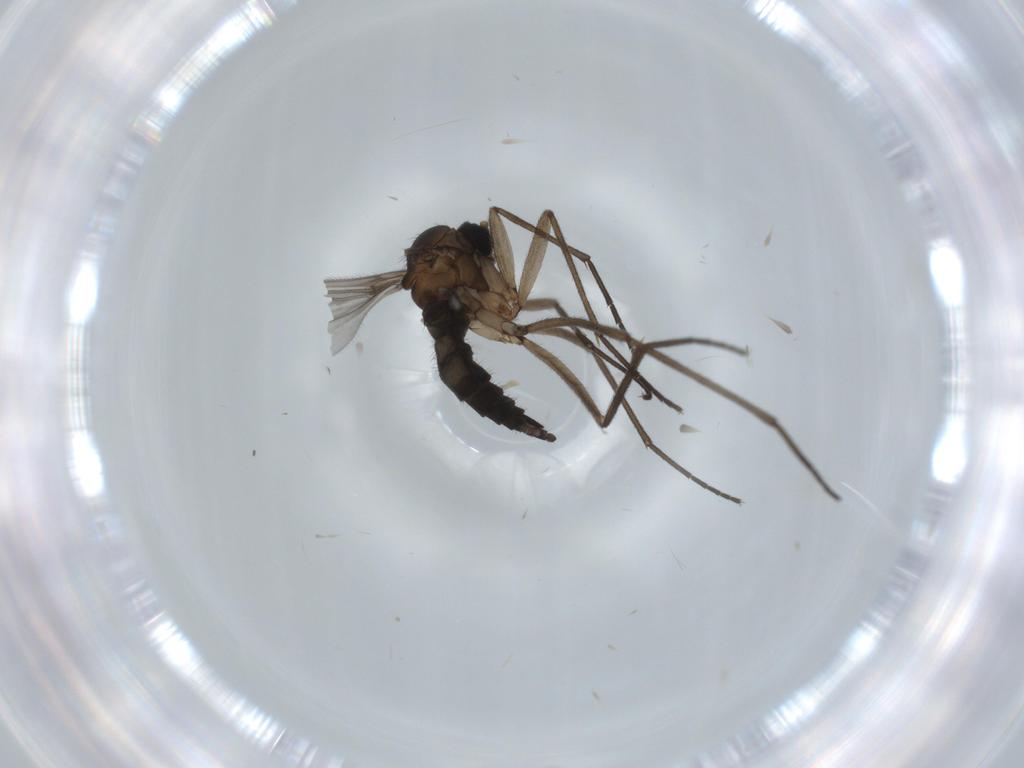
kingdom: Animalia
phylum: Arthropoda
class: Insecta
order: Diptera
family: Sciaridae
